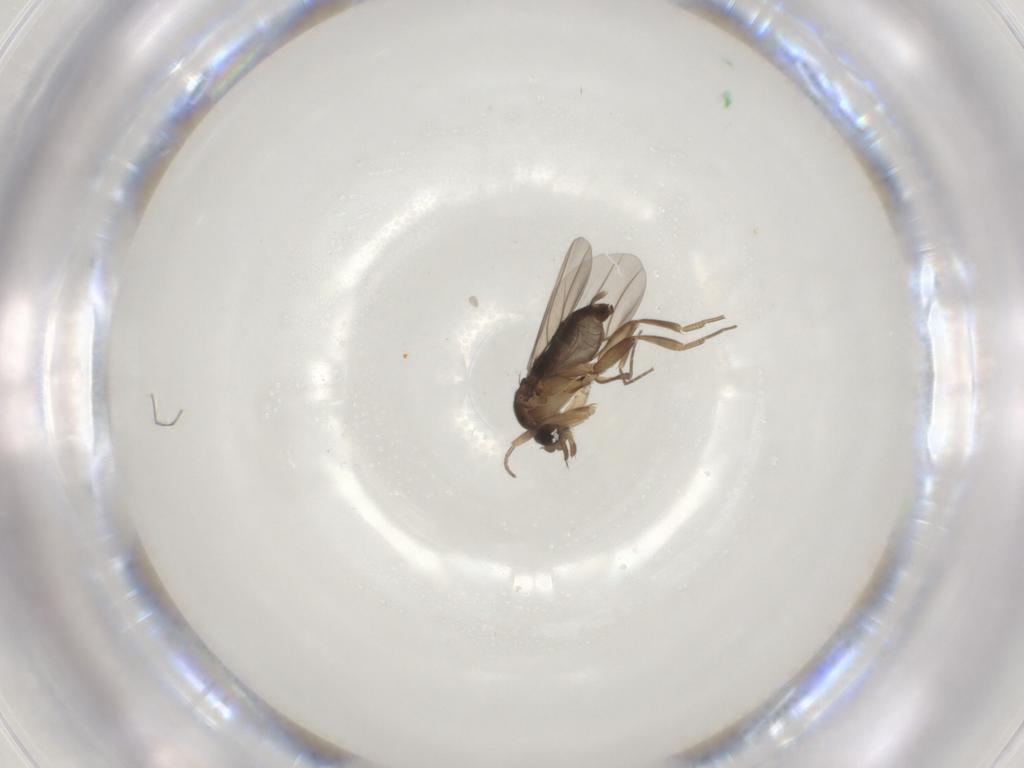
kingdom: Animalia
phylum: Arthropoda
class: Insecta
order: Diptera
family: Phoridae
